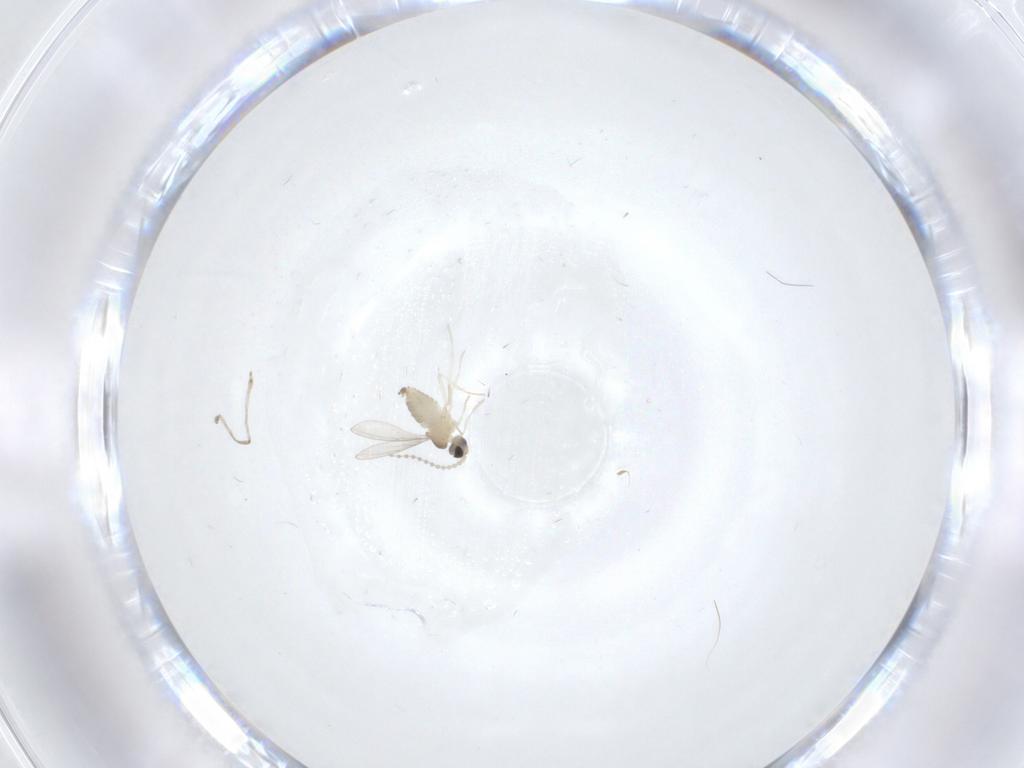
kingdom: Animalia
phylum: Arthropoda
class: Insecta
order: Diptera
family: Cecidomyiidae
